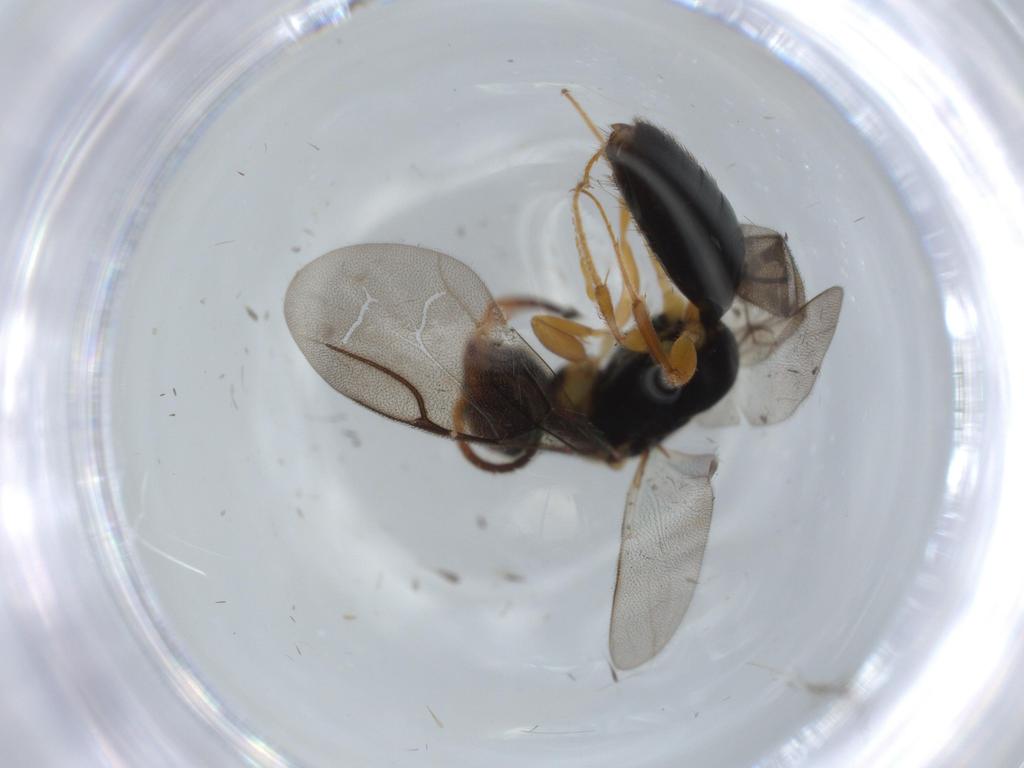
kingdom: Animalia
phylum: Arthropoda
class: Insecta
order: Hymenoptera
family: Bethylidae
